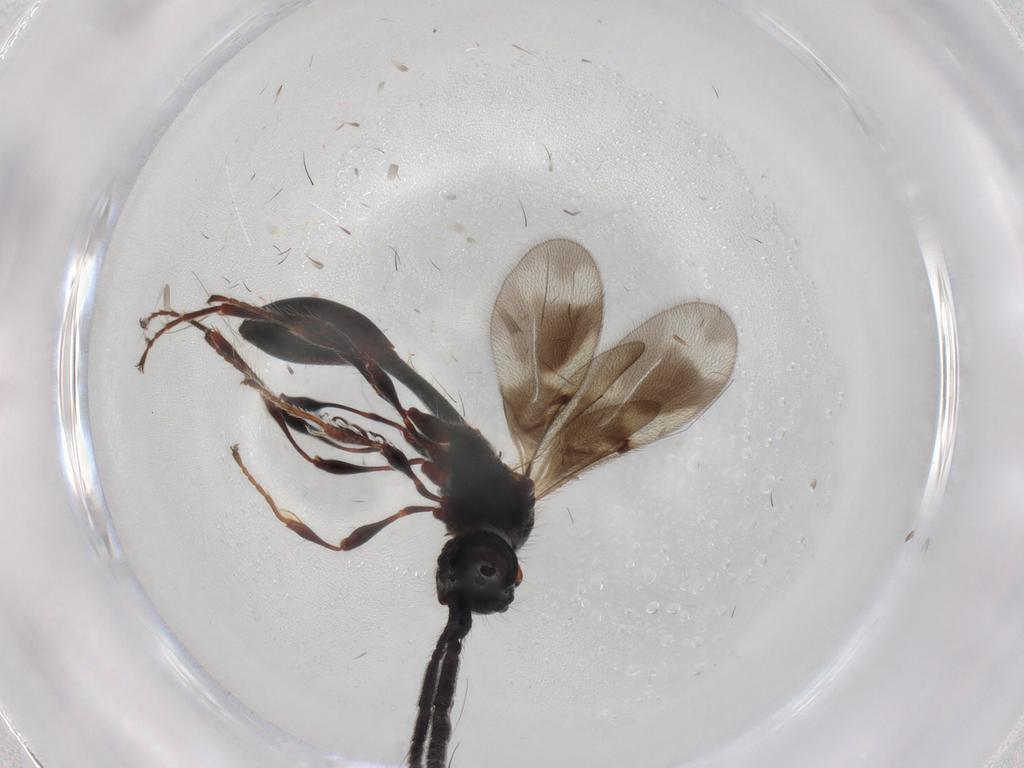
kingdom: Animalia
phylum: Arthropoda
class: Insecta
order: Hymenoptera
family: Diapriidae
